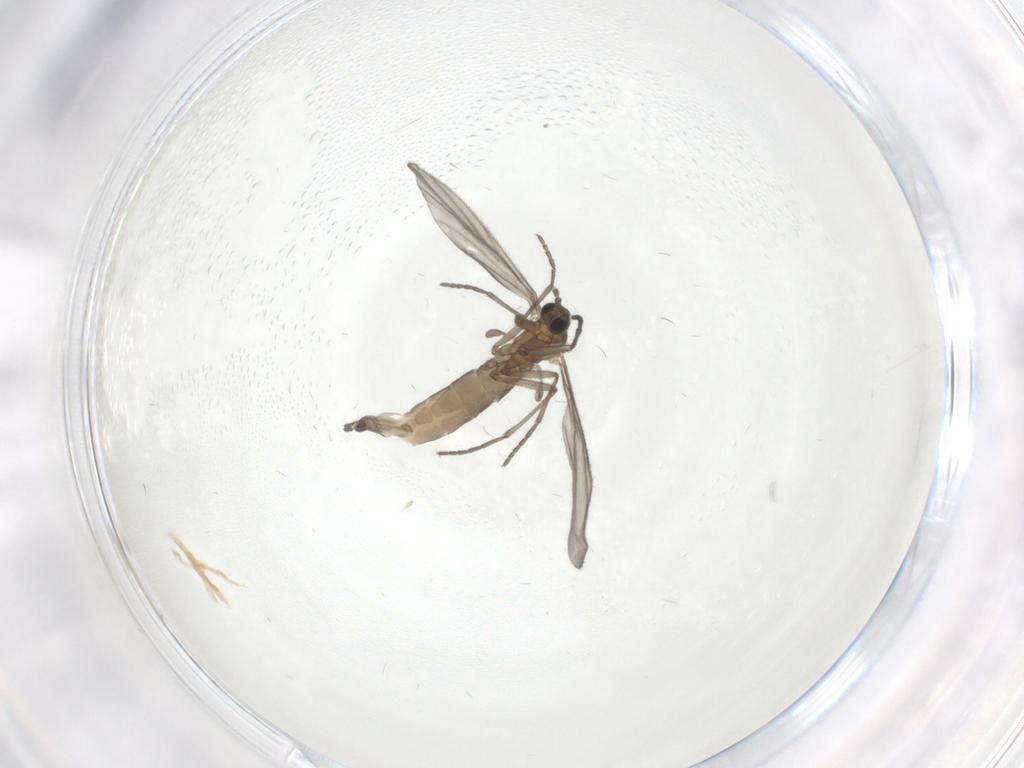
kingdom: Animalia
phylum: Arthropoda
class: Insecta
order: Diptera
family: Sciaridae
